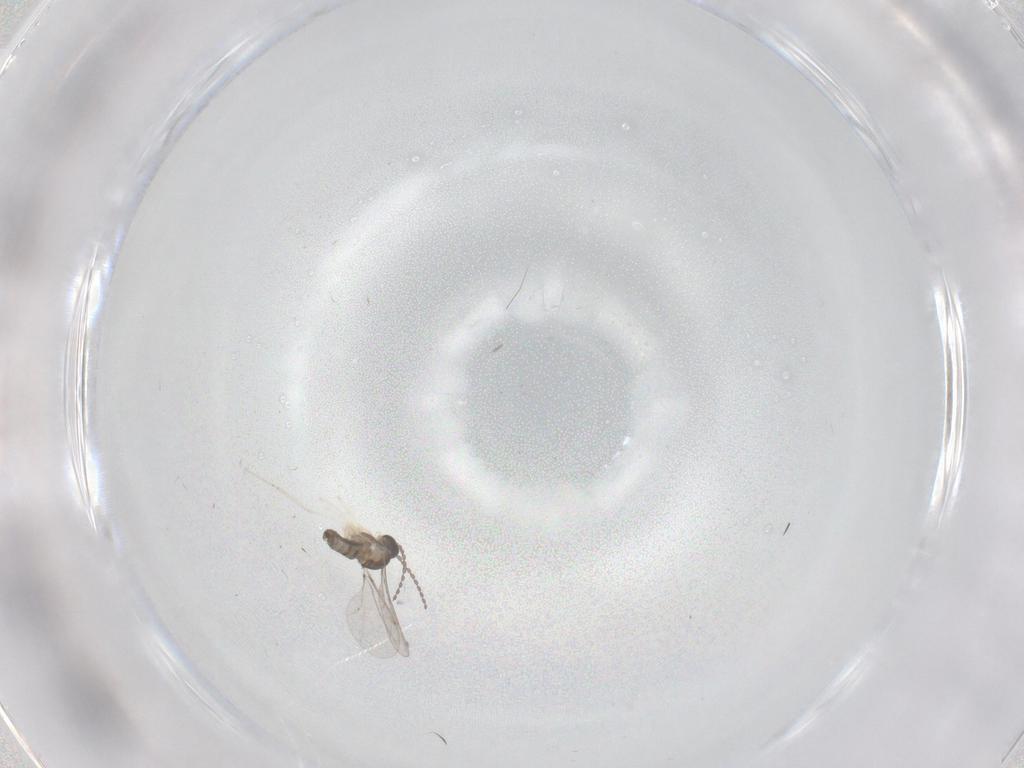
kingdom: Animalia
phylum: Arthropoda
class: Insecta
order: Diptera
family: Cecidomyiidae
